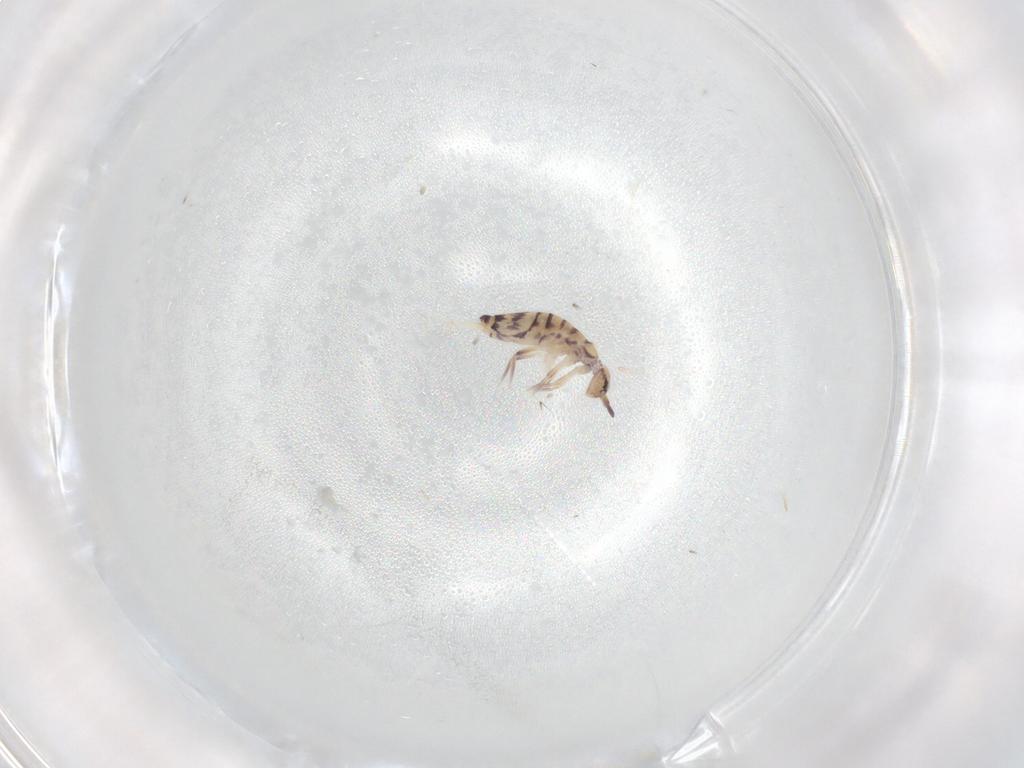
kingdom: Animalia
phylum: Arthropoda
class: Collembola
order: Entomobryomorpha
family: Entomobryidae
